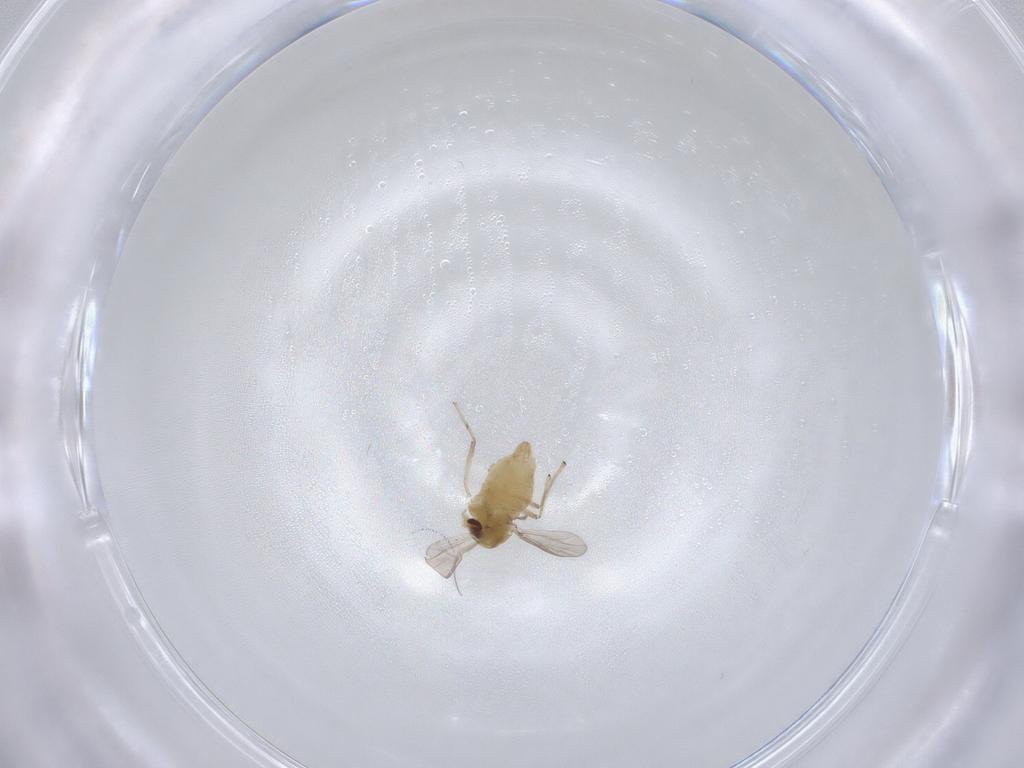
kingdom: Animalia
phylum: Arthropoda
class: Insecta
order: Diptera
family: Chironomidae
